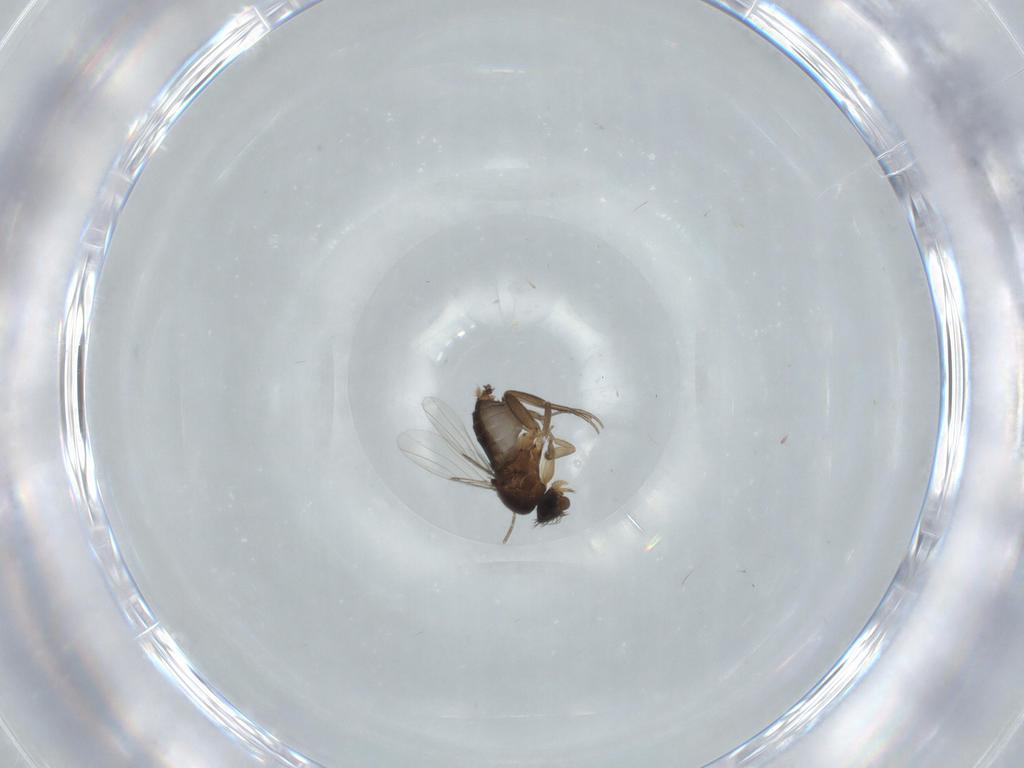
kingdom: Animalia
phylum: Arthropoda
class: Insecta
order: Diptera
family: Phoridae
